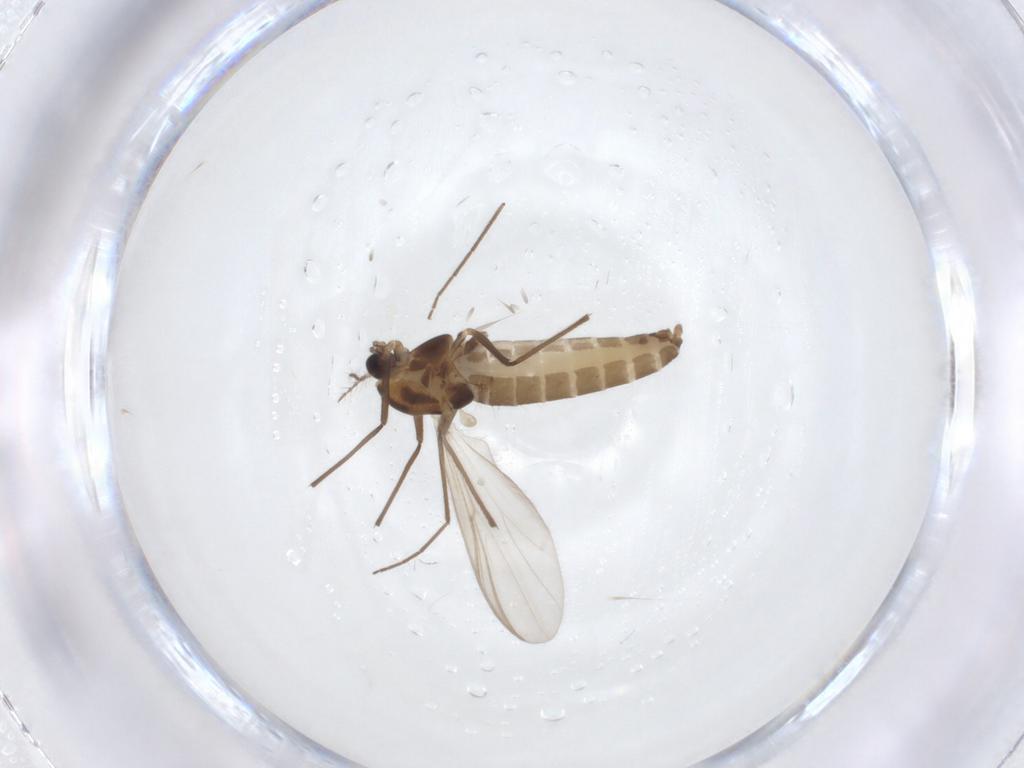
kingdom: Animalia
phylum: Arthropoda
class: Insecta
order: Diptera
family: Chironomidae
